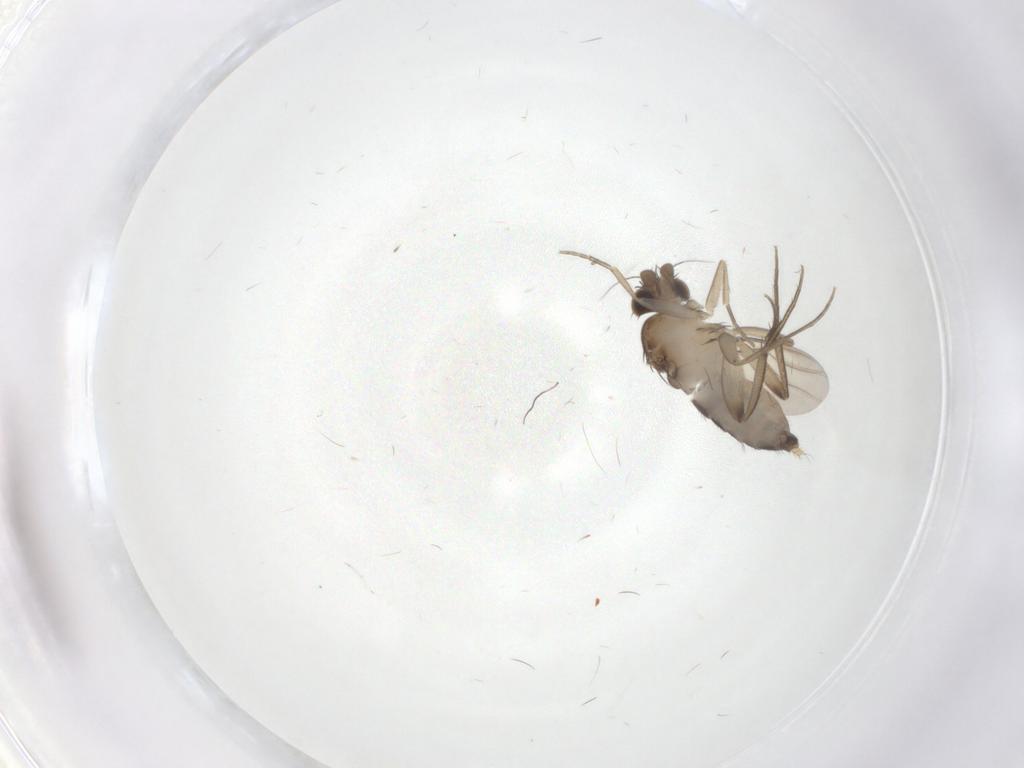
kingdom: Animalia
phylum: Arthropoda
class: Insecta
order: Diptera
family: Phoridae
